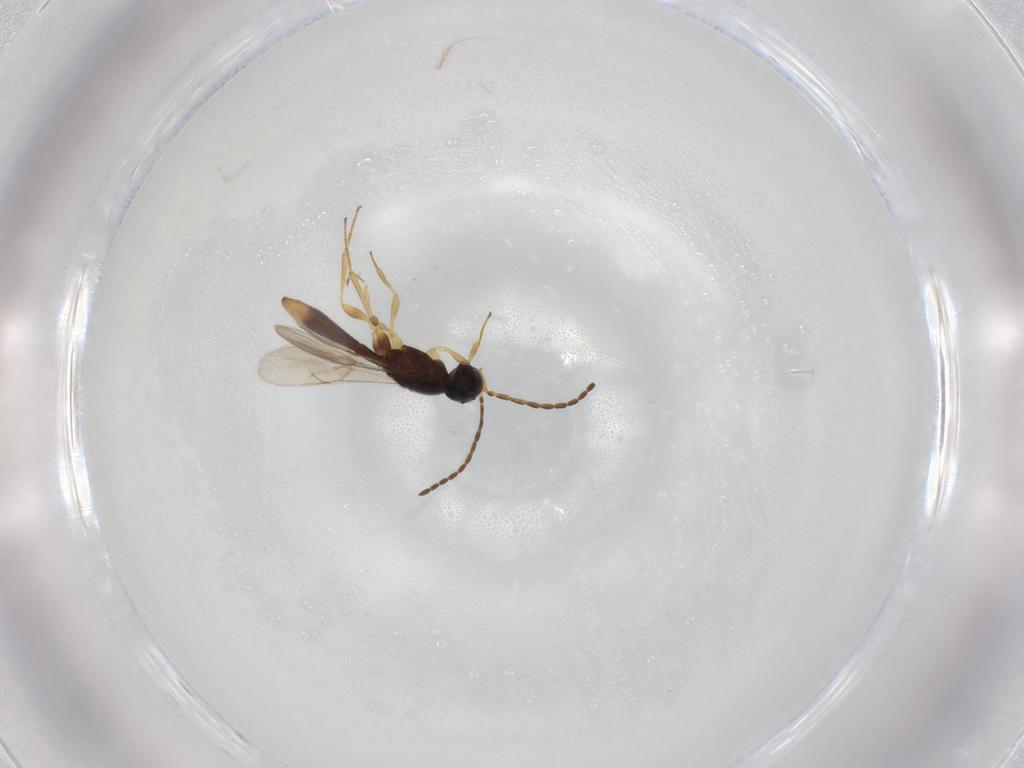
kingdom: Animalia
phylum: Arthropoda
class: Insecta
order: Hymenoptera
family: Scelionidae
